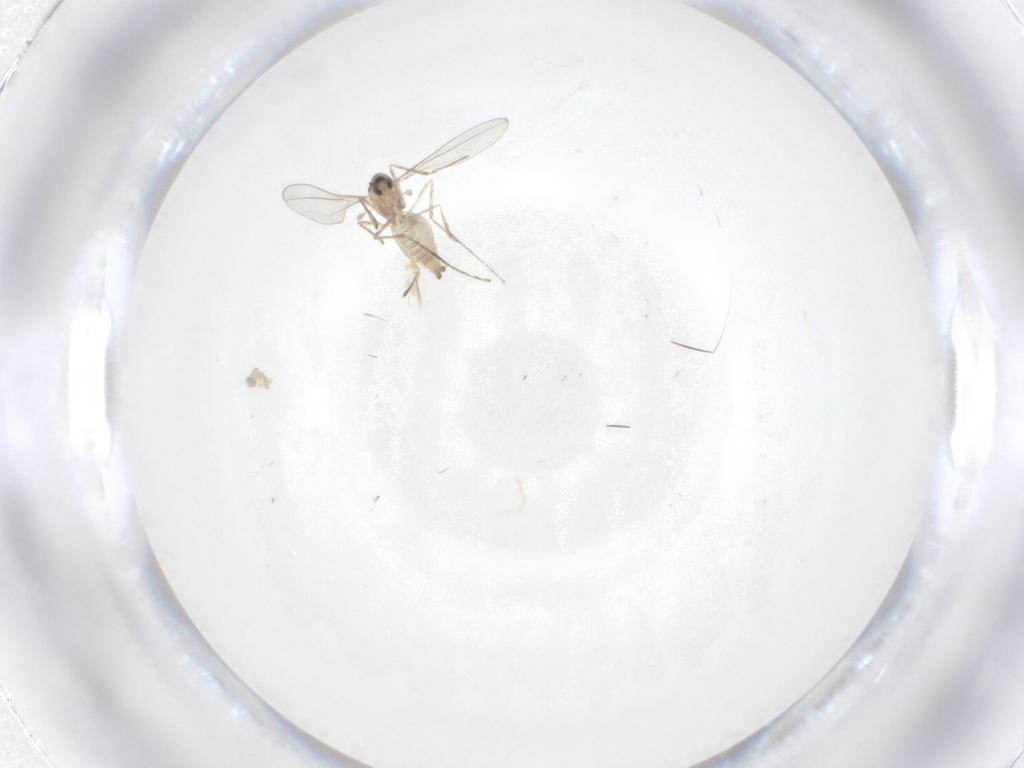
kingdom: Animalia
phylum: Arthropoda
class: Insecta
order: Diptera
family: Cecidomyiidae
